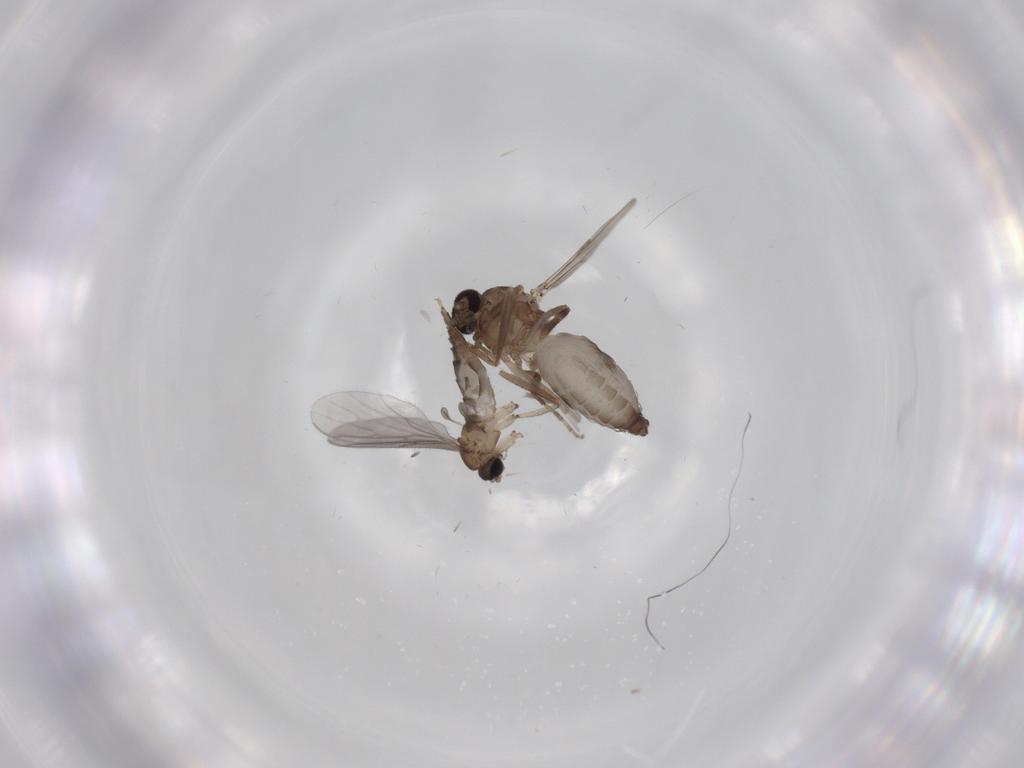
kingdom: Animalia
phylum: Arthropoda
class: Insecta
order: Diptera
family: Ceratopogonidae
